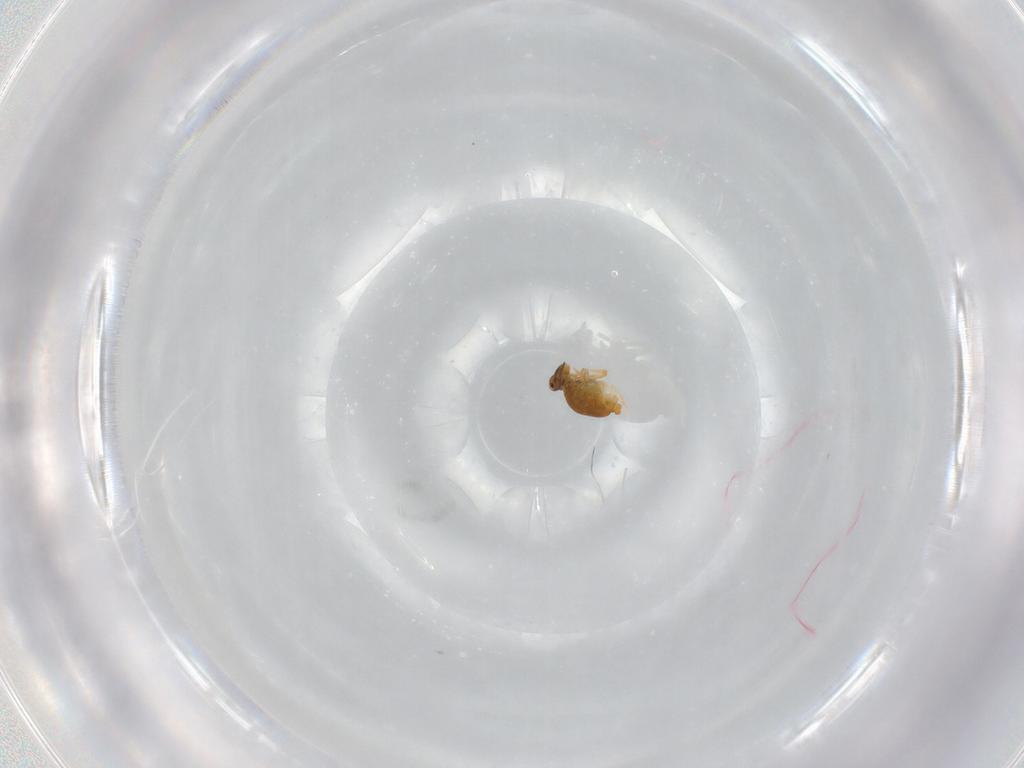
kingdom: Animalia
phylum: Arthropoda
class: Collembola
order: Symphypleona
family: Katiannidae
